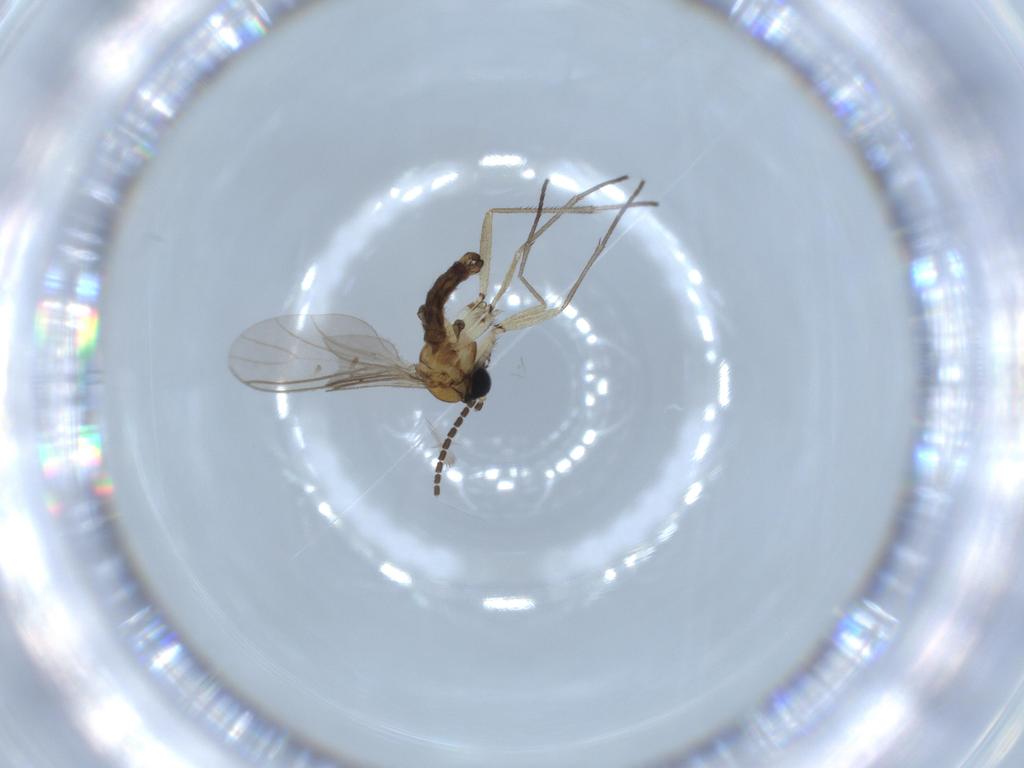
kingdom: Animalia
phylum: Arthropoda
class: Insecta
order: Diptera
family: Sciaridae
